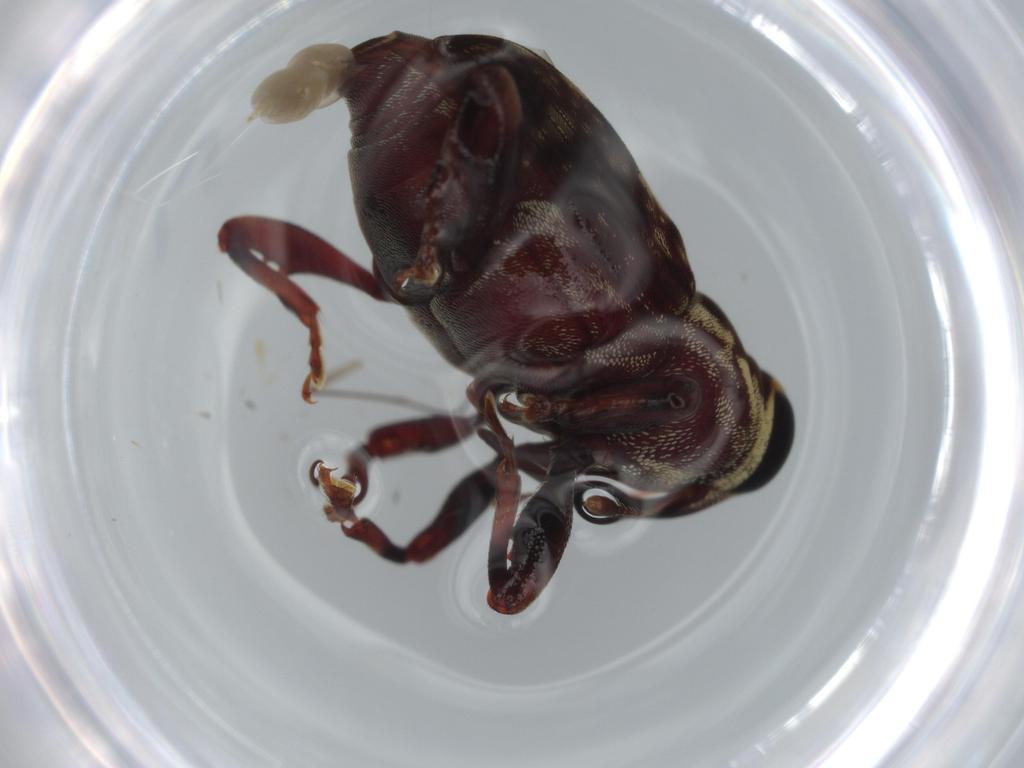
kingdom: Animalia
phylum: Arthropoda
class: Insecta
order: Coleoptera
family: Curculionidae
